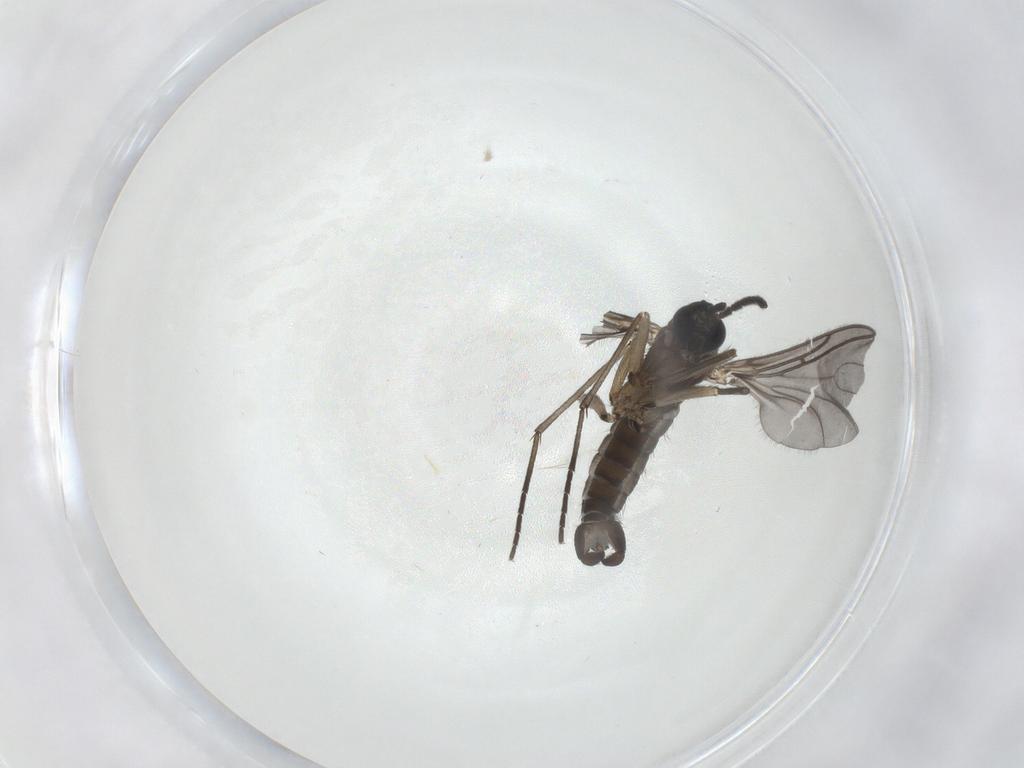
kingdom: Animalia
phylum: Arthropoda
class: Insecta
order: Diptera
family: Sciaridae
